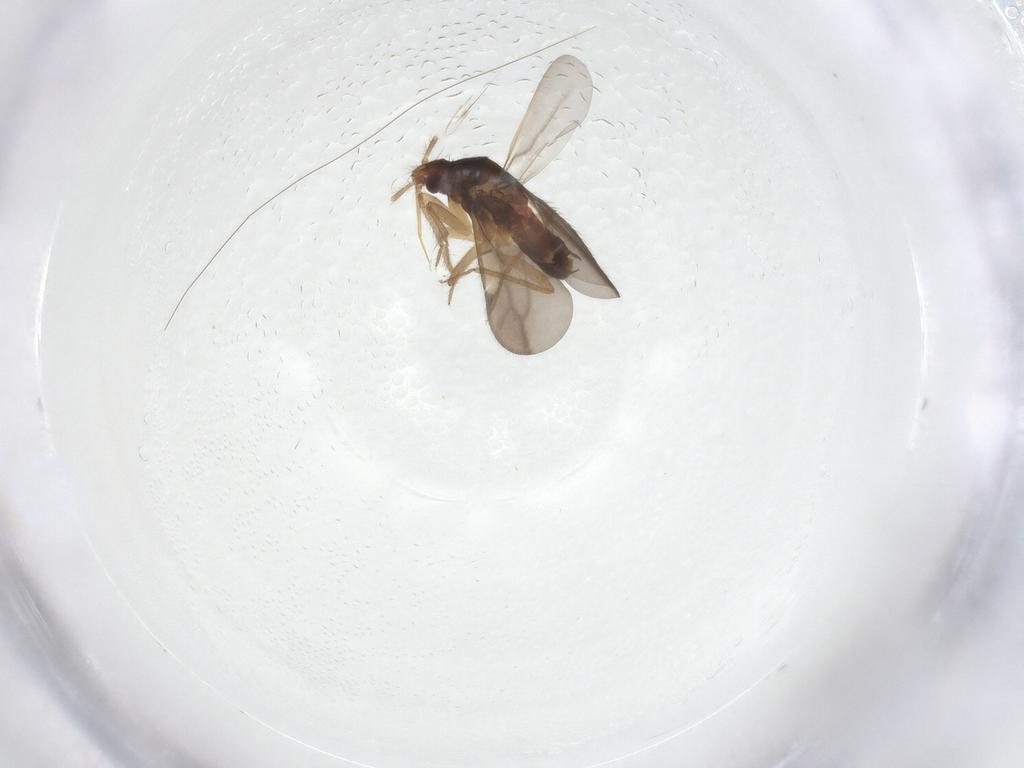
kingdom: Animalia
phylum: Arthropoda
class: Insecta
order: Hemiptera
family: Ceratocombidae
